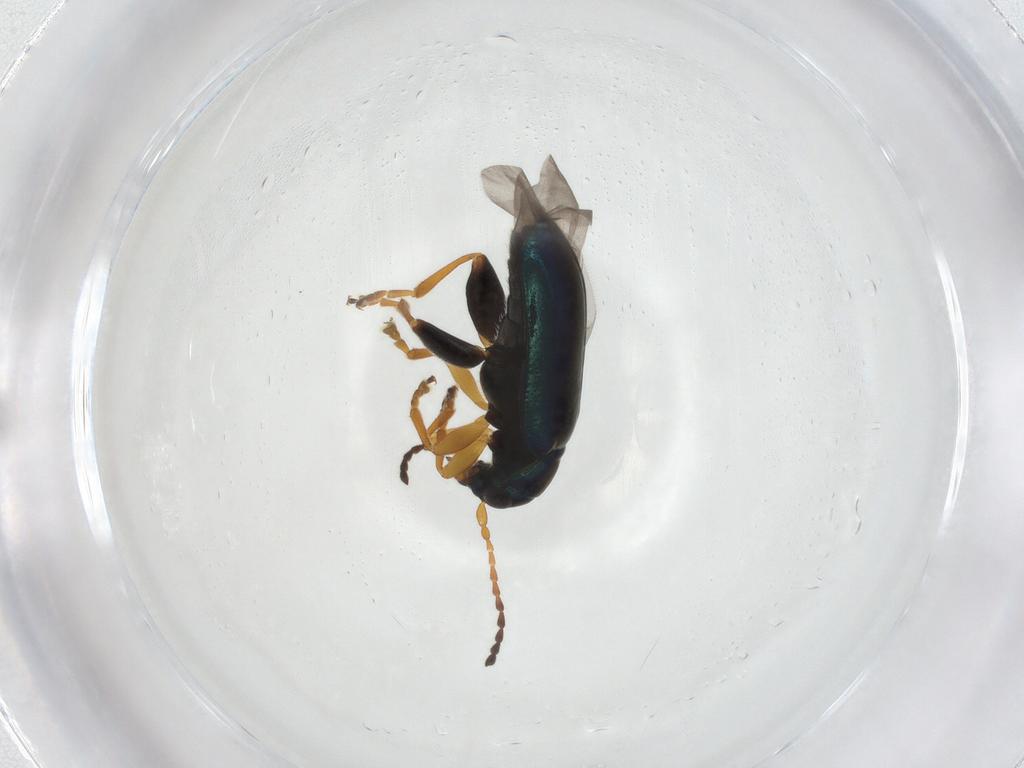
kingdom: Animalia
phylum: Arthropoda
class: Insecta
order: Coleoptera
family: Chrysomelidae
